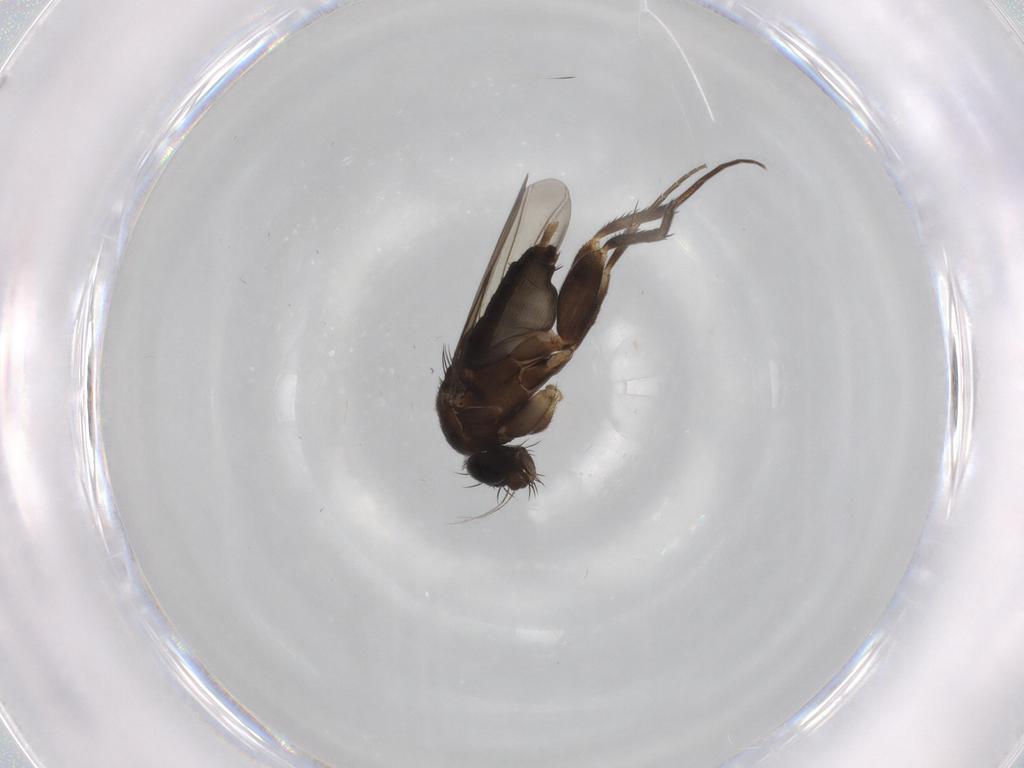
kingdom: Animalia
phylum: Arthropoda
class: Insecta
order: Diptera
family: Phoridae
